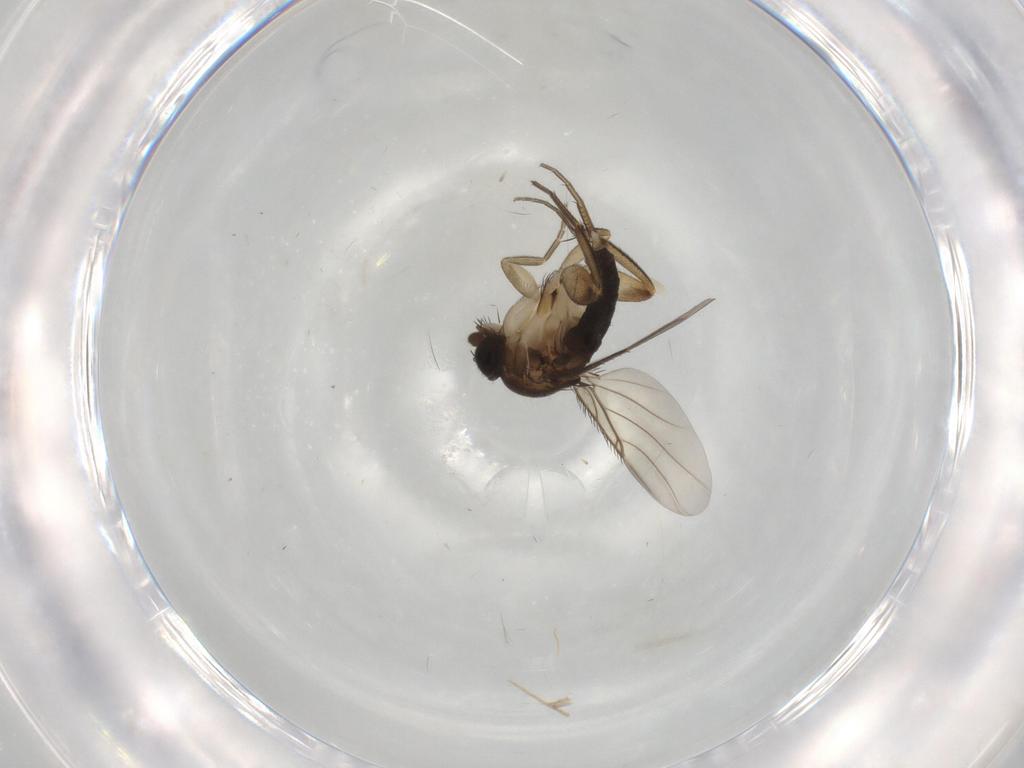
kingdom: Animalia
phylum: Arthropoda
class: Insecta
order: Diptera
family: Phoridae
